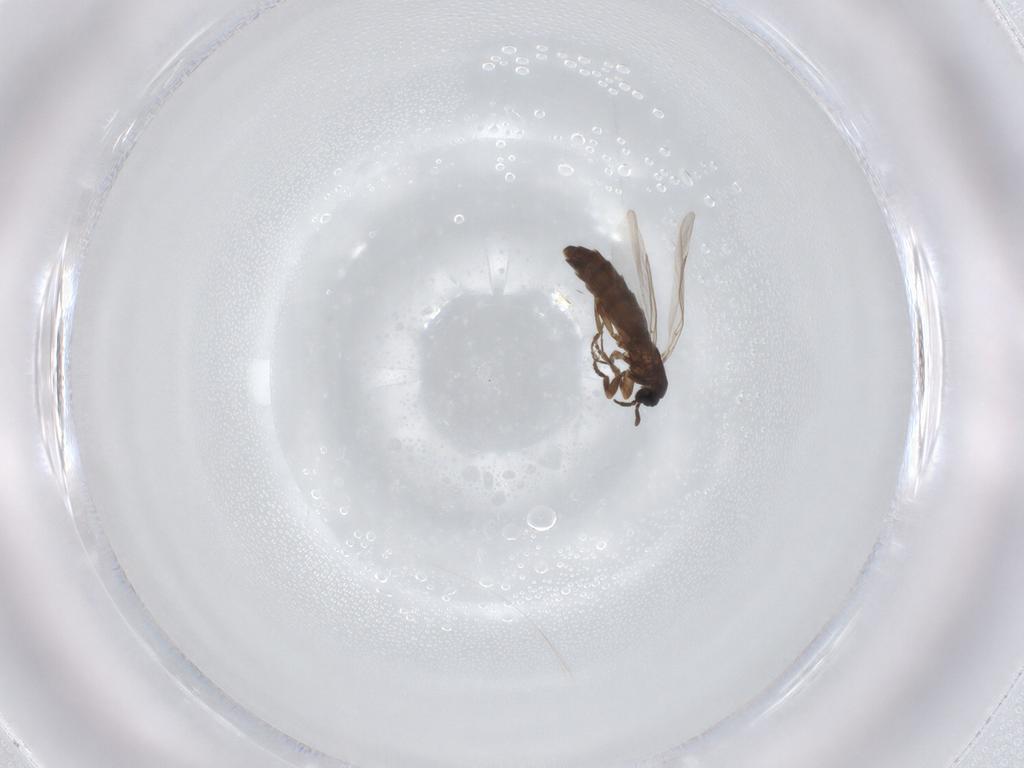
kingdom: Animalia
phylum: Arthropoda
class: Insecta
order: Diptera
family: Scatopsidae
